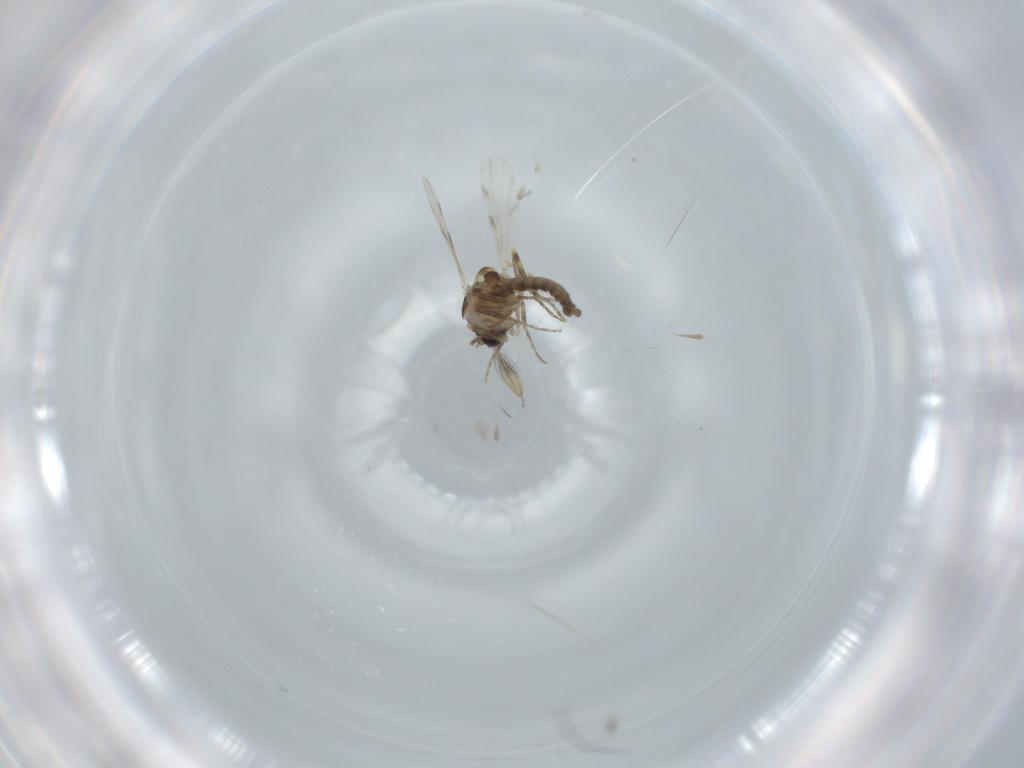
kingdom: Animalia
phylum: Arthropoda
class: Insecta
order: Diptera
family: Ceratopogonidae
